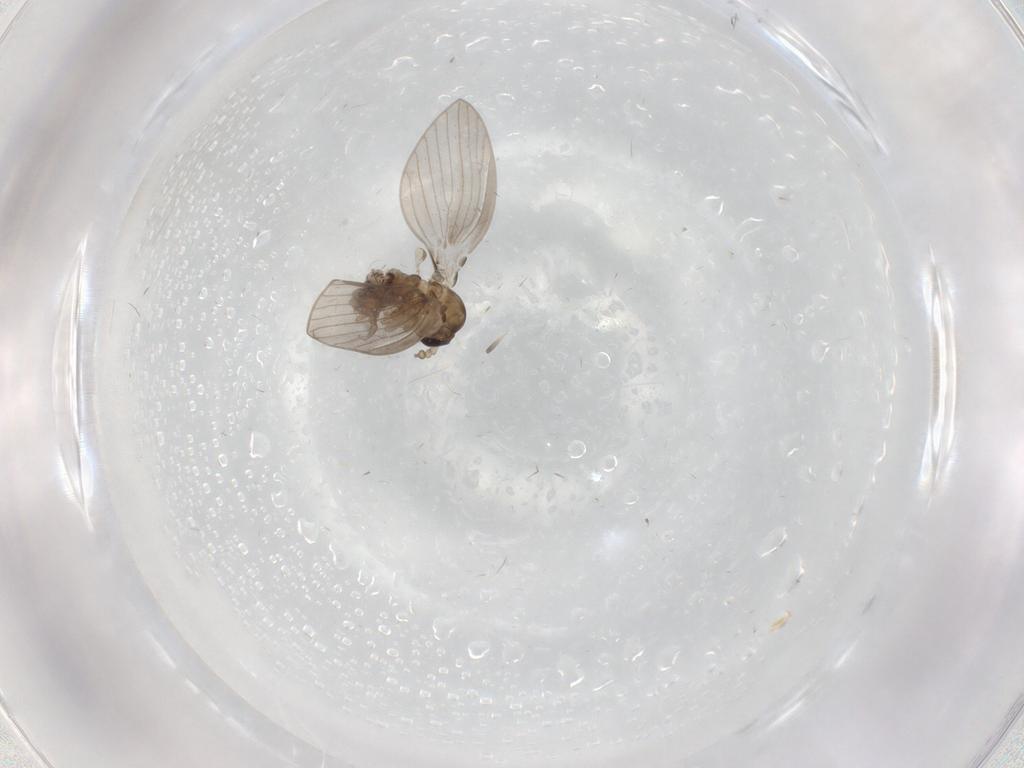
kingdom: Animalia
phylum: Arthropoda
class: Insecta
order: Diptera
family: Psychodidae
